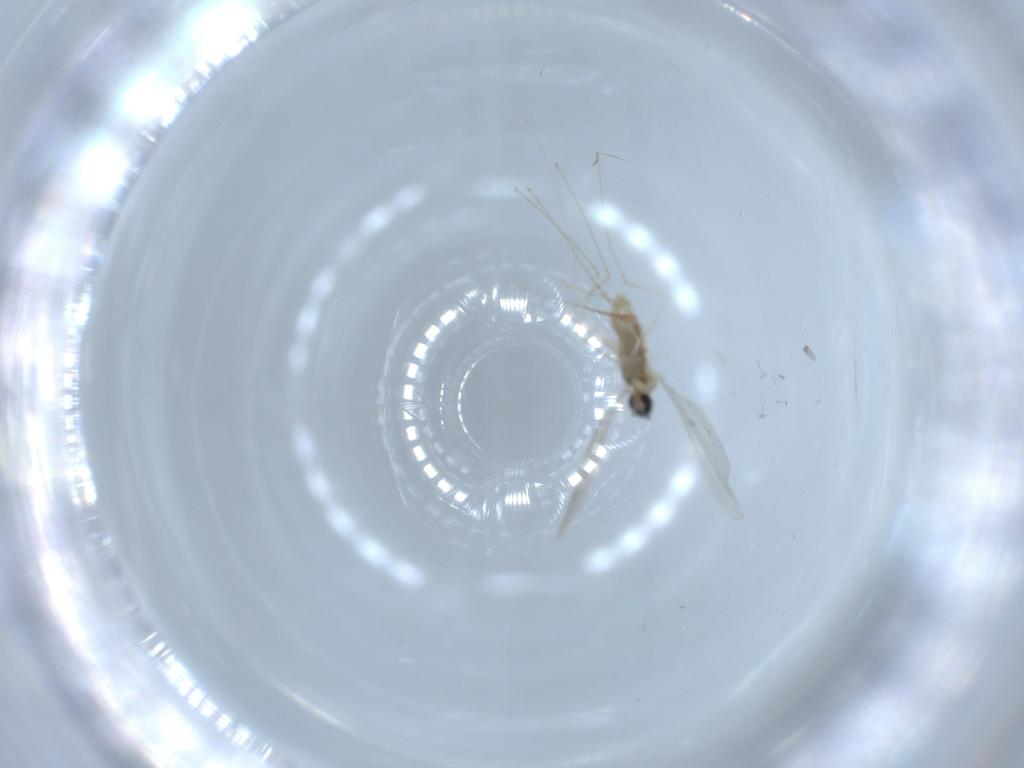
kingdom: Animalia
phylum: Arthropoda
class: Insecta
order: Diptera
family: Cecidomyiidae
